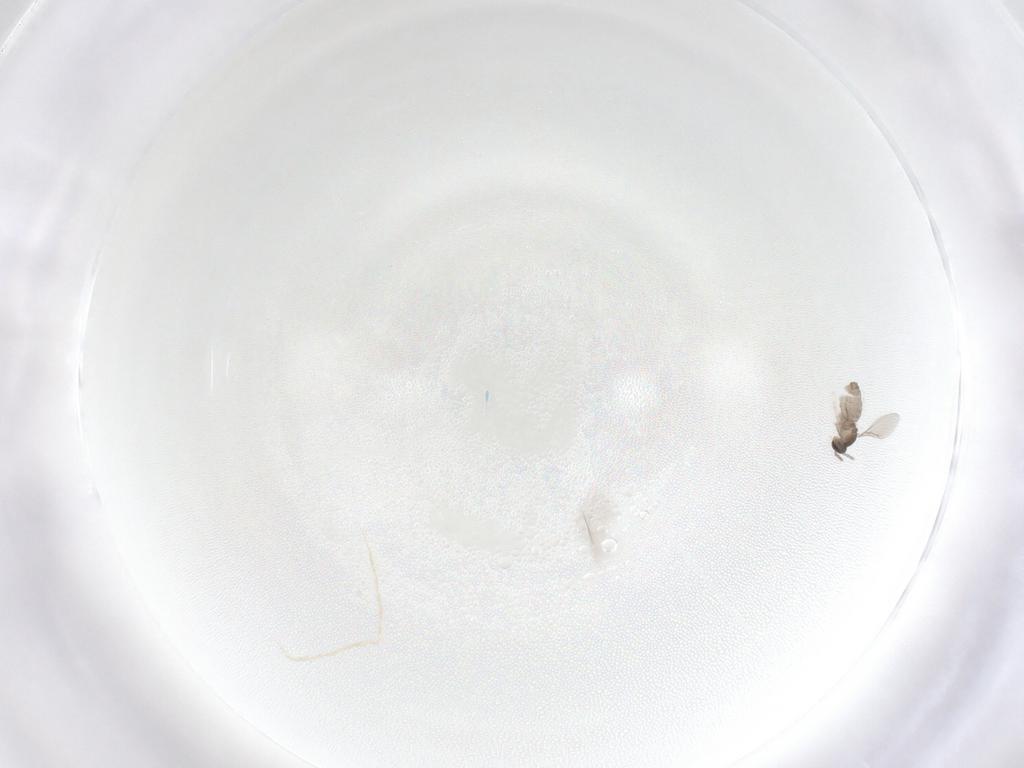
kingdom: Animalia
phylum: Arthropoda
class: Insecta
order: Diptera
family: Cecidomyiidae
